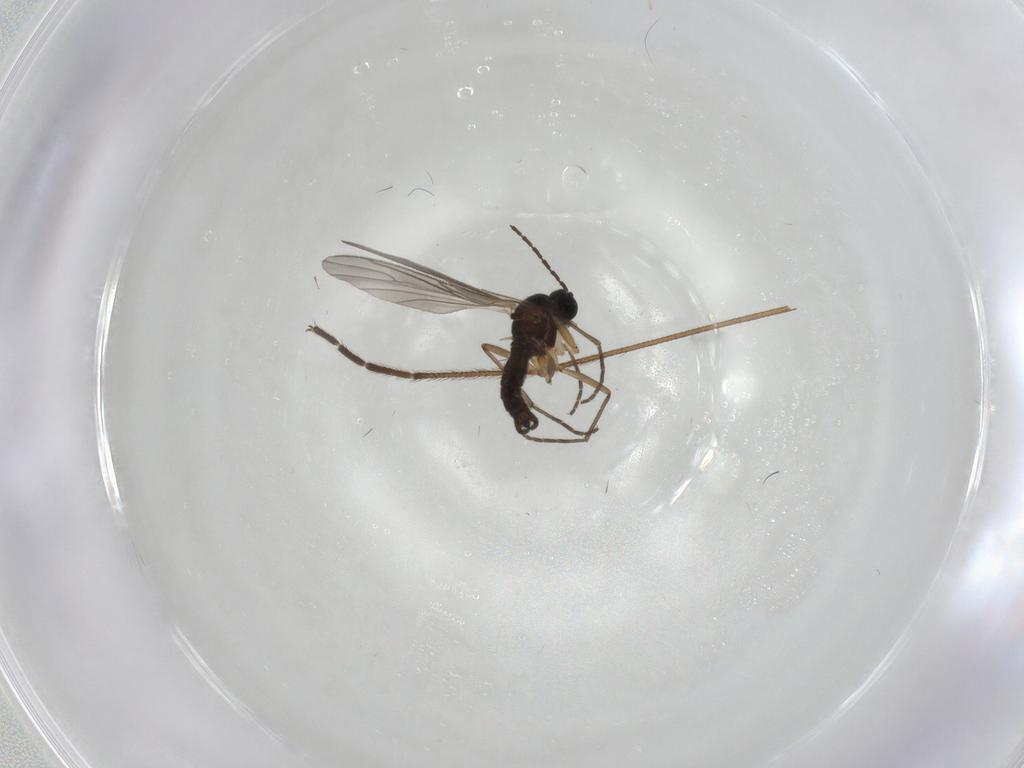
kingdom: Animalia
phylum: Arthropoda
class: Insecta
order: Diptera
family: Sciaridae
